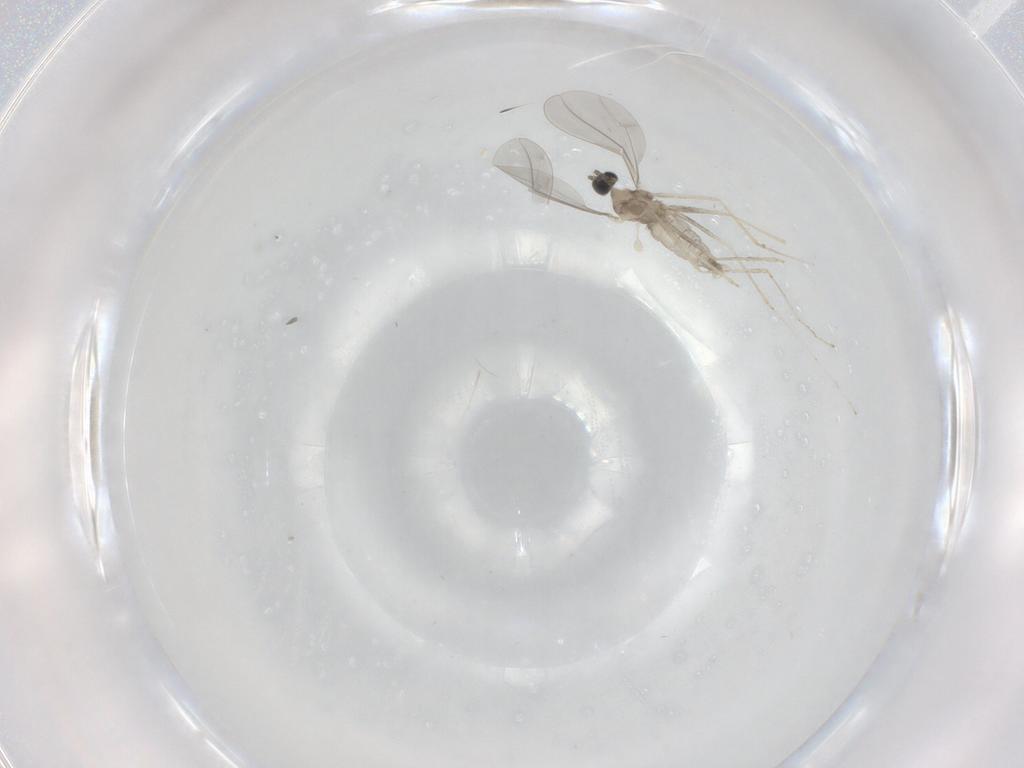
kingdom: Animalia
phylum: Arthropoda
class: Insecta
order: Diptera
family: Cecidomyiidae
